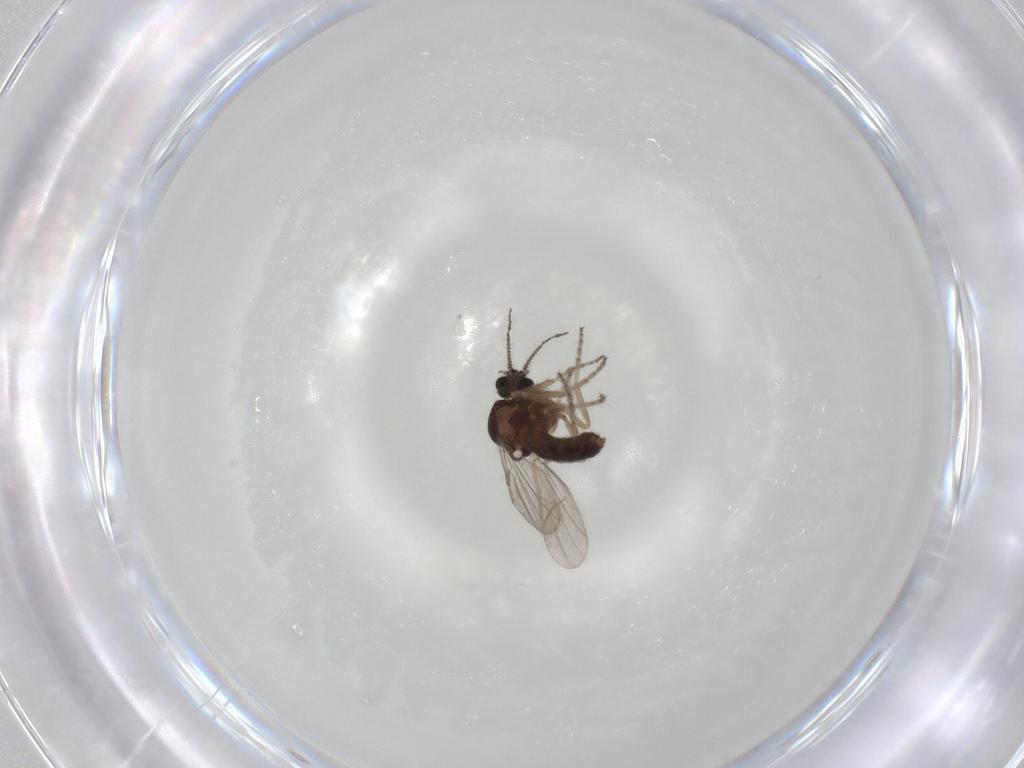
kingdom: Animalia
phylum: Arthropoda
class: Insecta
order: Diptera
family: Ceratopogonidae
